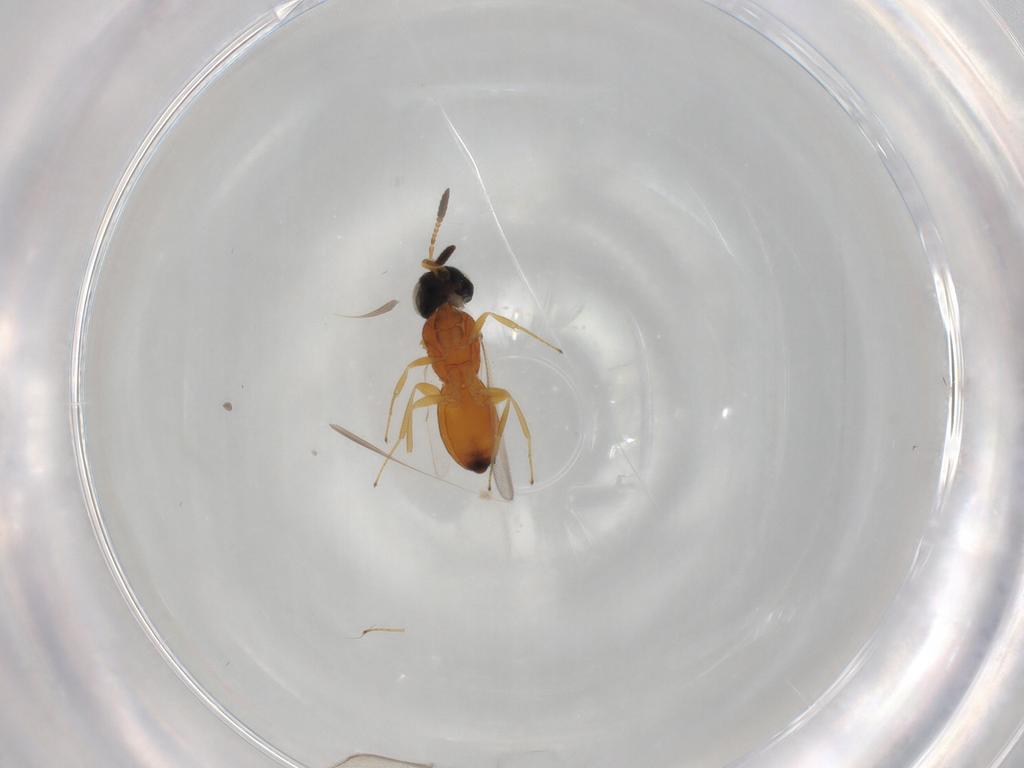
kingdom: Animalia
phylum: Arthropoda
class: Insecta
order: Hymenoptera
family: Scelionidae
